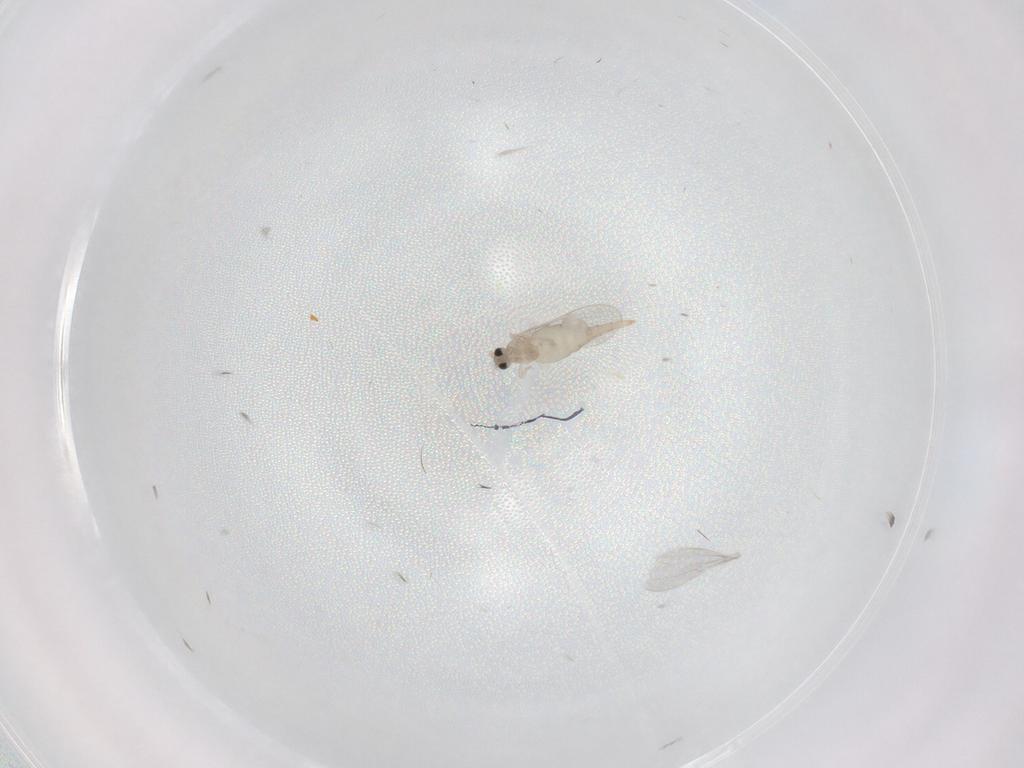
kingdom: Animalia
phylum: Arthropoda
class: Insecta
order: Diptera
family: Cecidomyiidae
